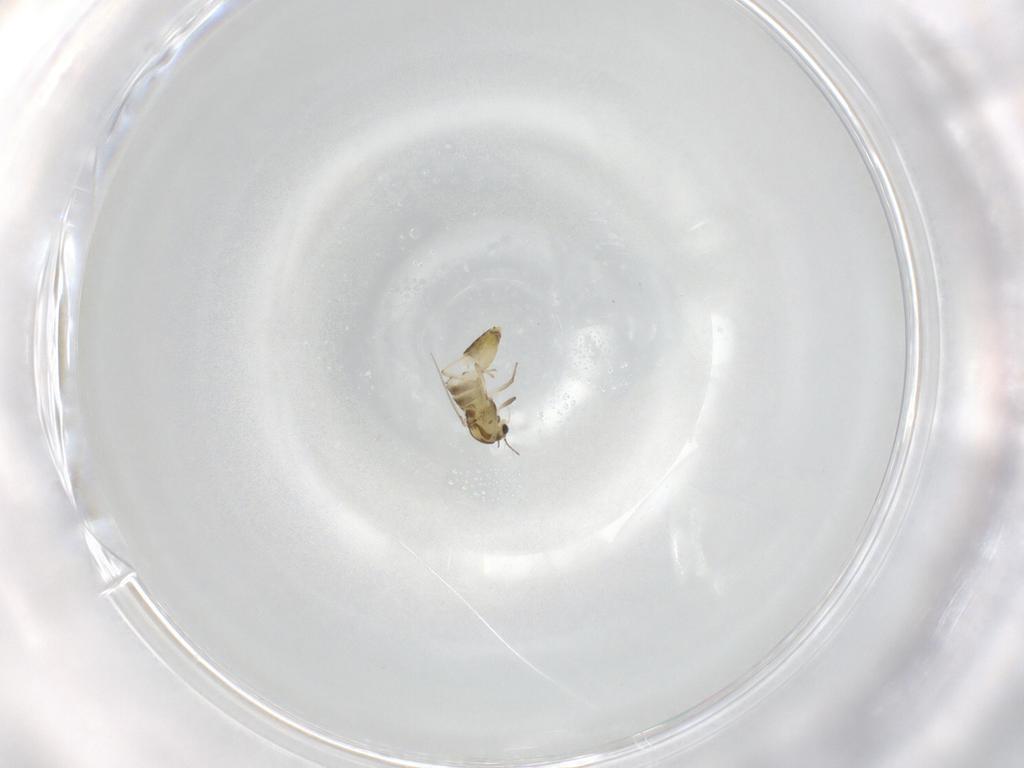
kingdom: Animalia
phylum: Arthropoda
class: Insecta
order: Diptera
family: Chironomidae
